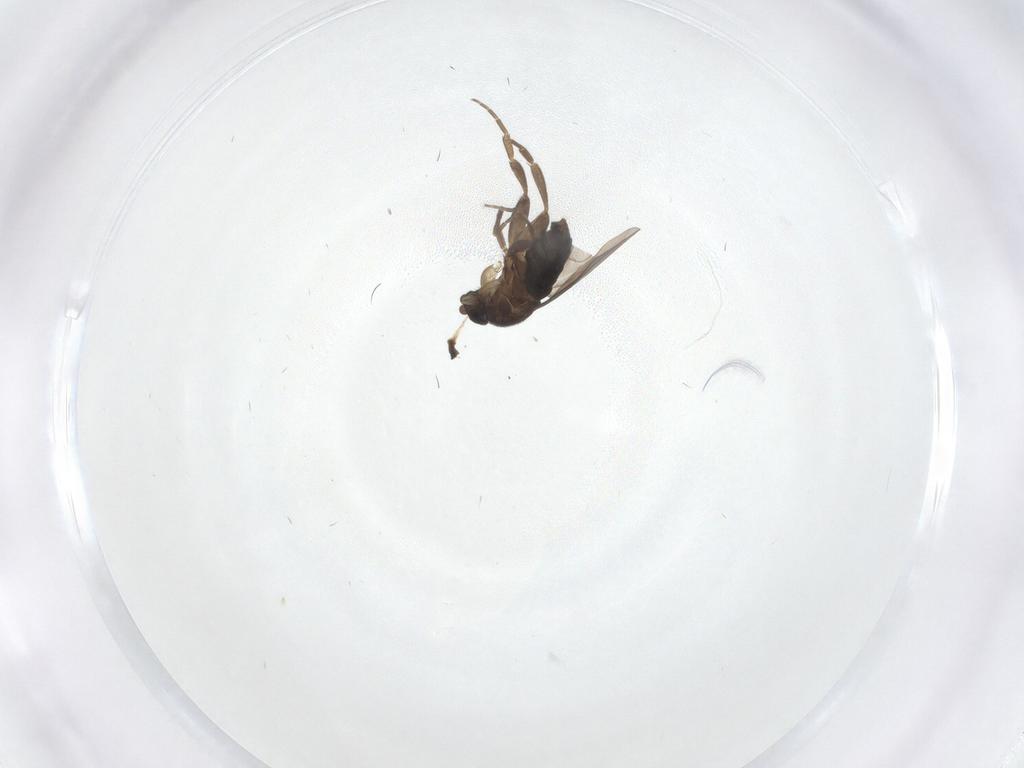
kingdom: Animalia
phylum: Arthropoda
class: Insecta
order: Diptera
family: Phoridae
